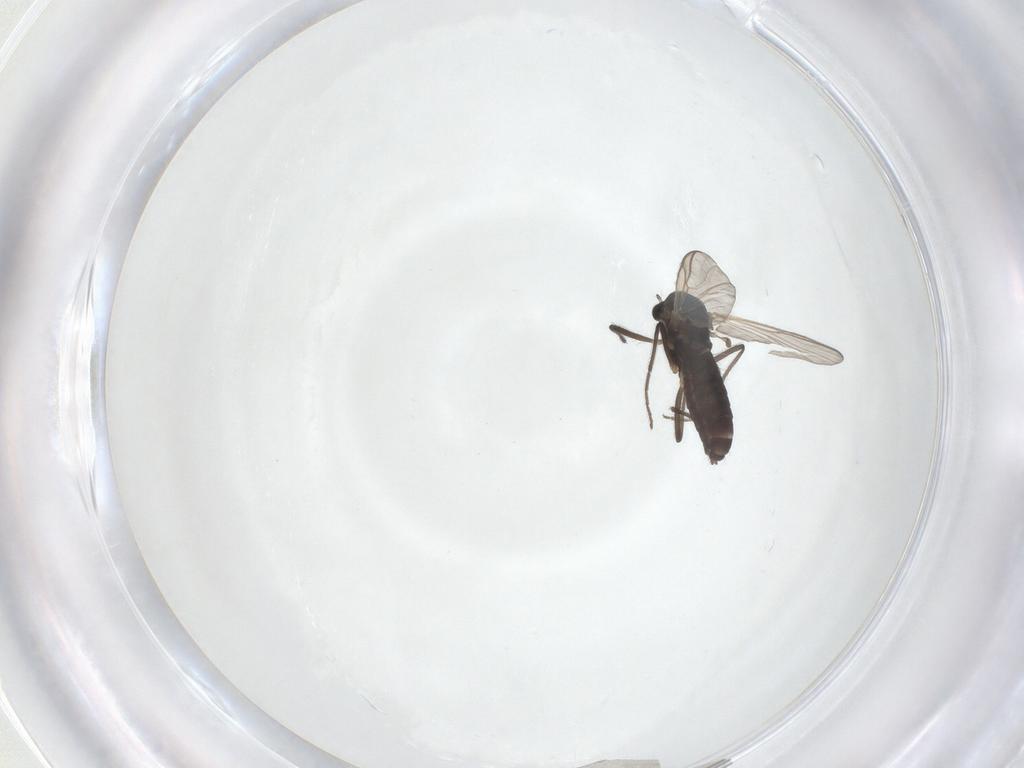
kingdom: Animalia
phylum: Arthropoda
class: Insecta
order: Diptera
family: Chironomidae
